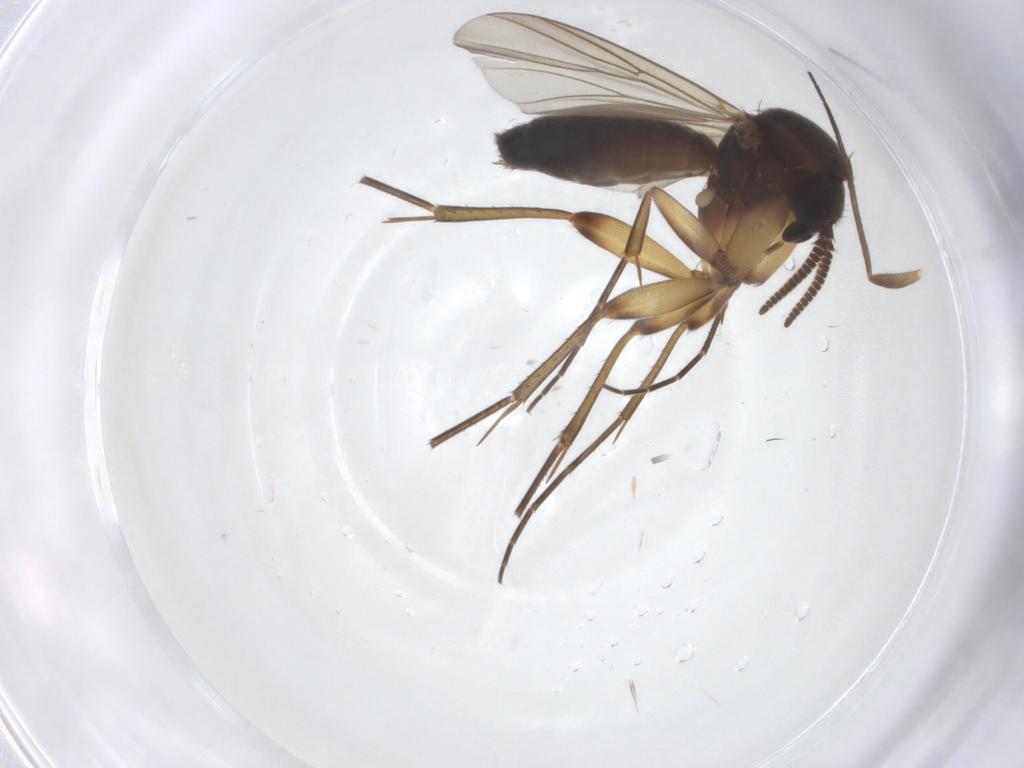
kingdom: Animalia
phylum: Arthropoda
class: Insecta
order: Diptera
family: Mycetophilidae
